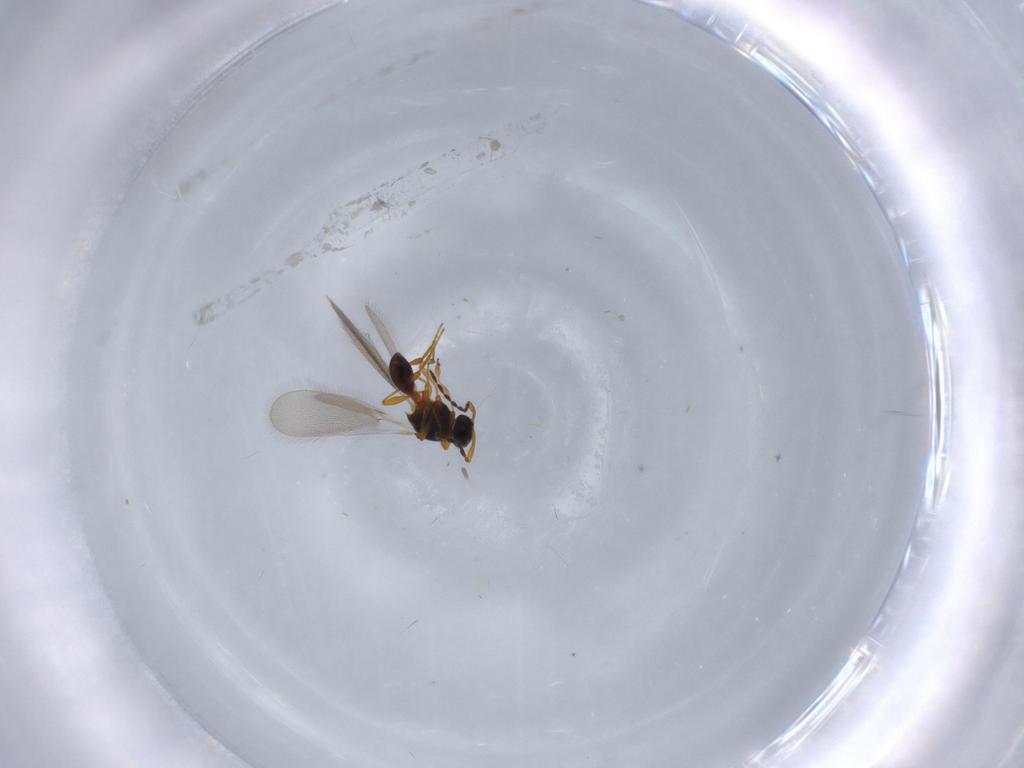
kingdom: Animalia
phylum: Arthropoda
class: Insecta
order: Hymenoptera
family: Platygastridae
